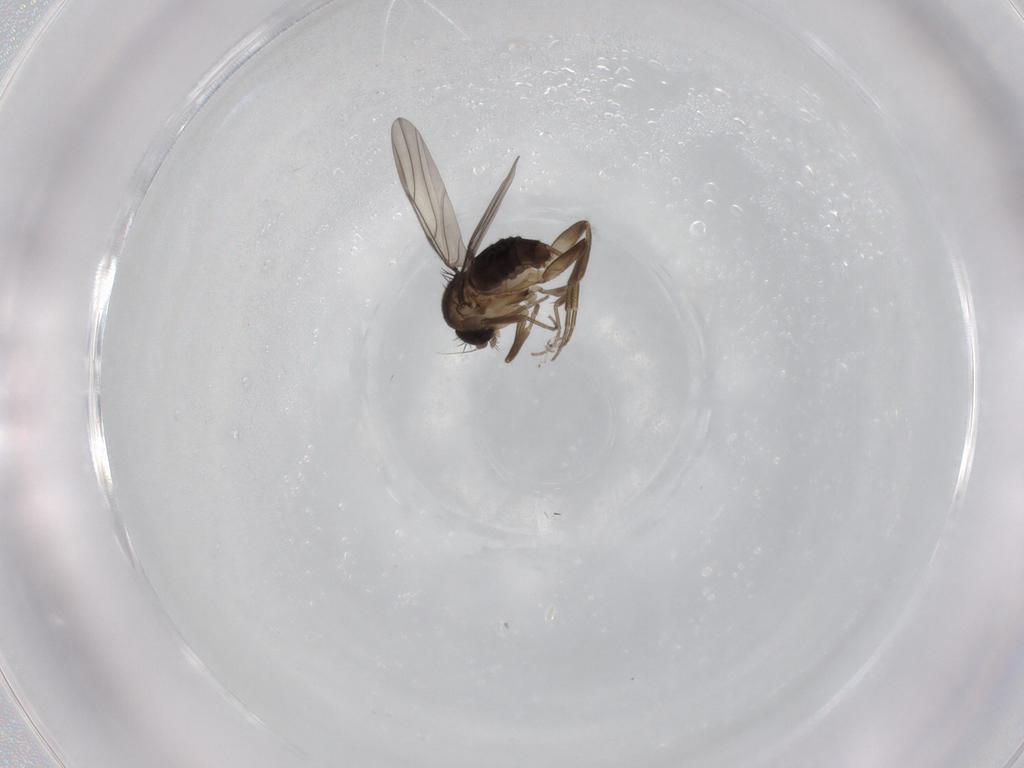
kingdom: Animalia
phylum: Arthropoda
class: Insecta
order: Diptera
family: Phoridae
